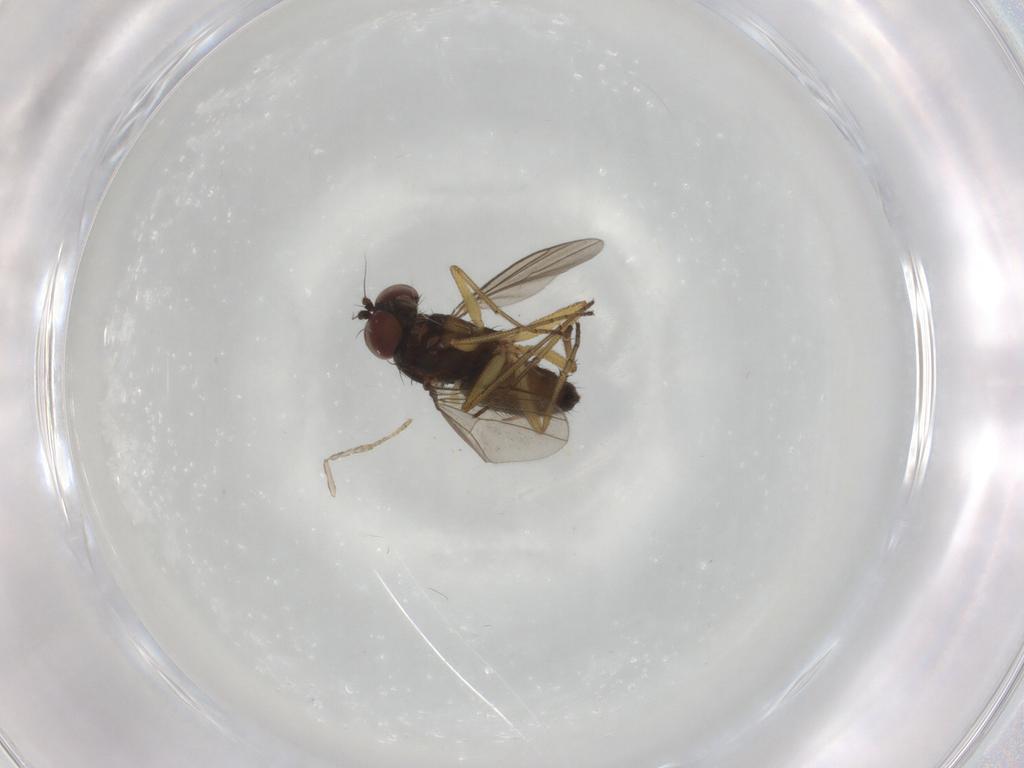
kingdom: Animalia
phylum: Arthropoda
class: Insecta
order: Diptera
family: Dolichopodidae
